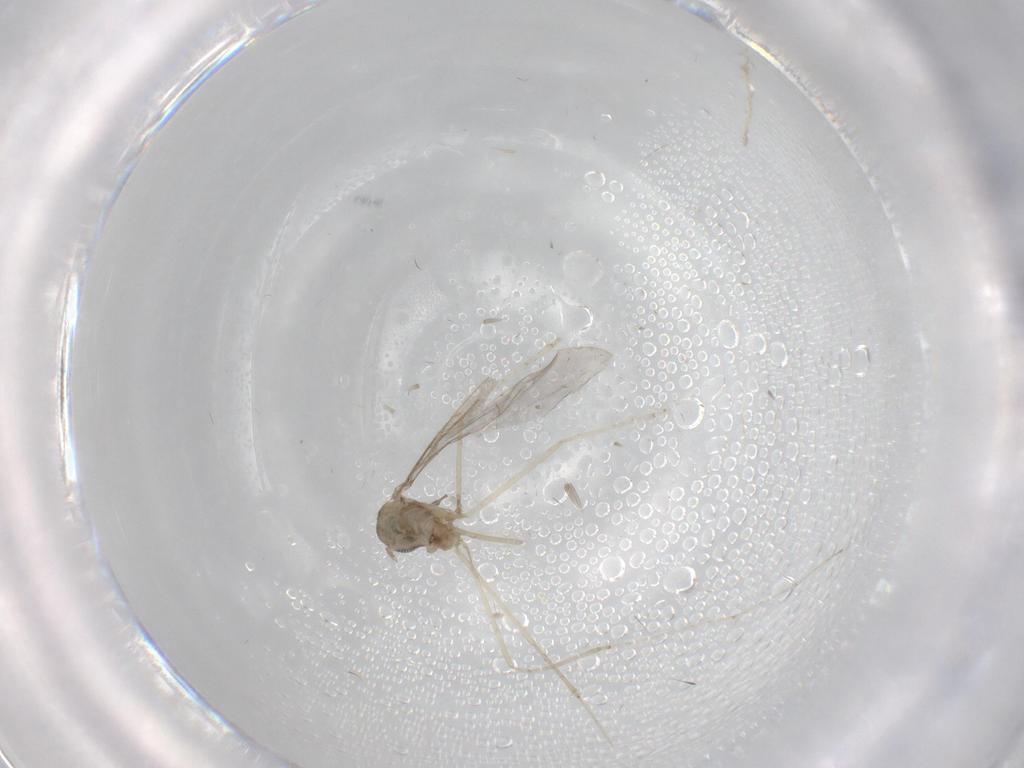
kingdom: Animalia
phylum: Arthropoda
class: Insecta
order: Diptera
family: Cecidomyiidae
